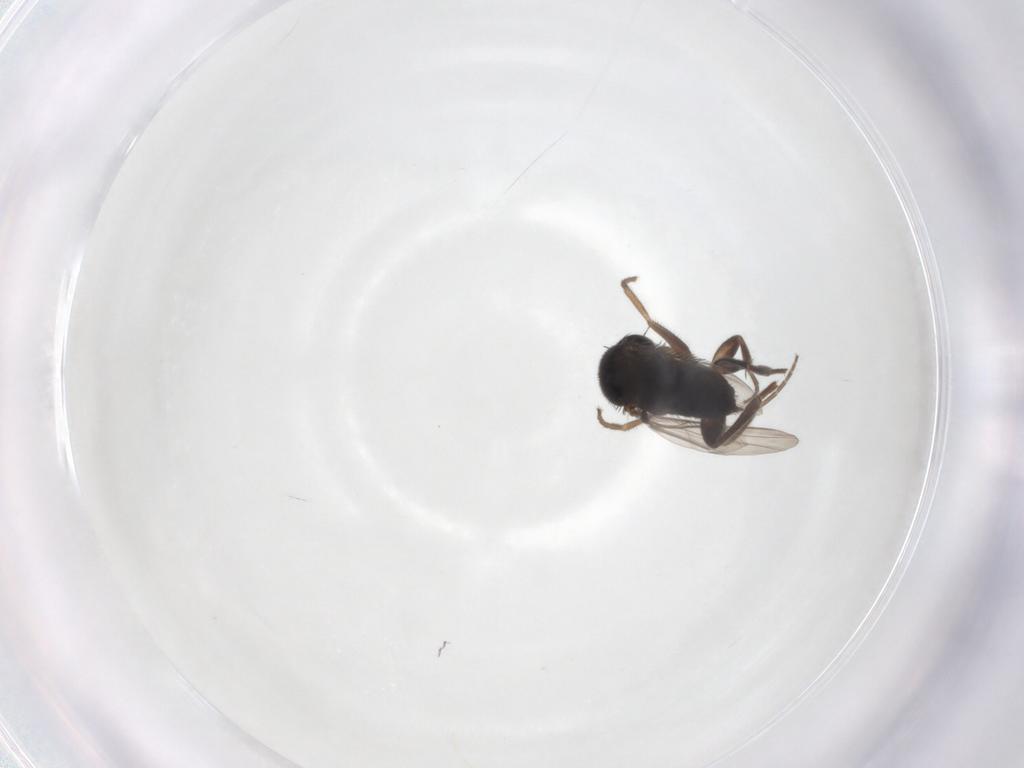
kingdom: Animalia
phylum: Arthropoda
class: Insecta
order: Diptera
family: Phoridae
